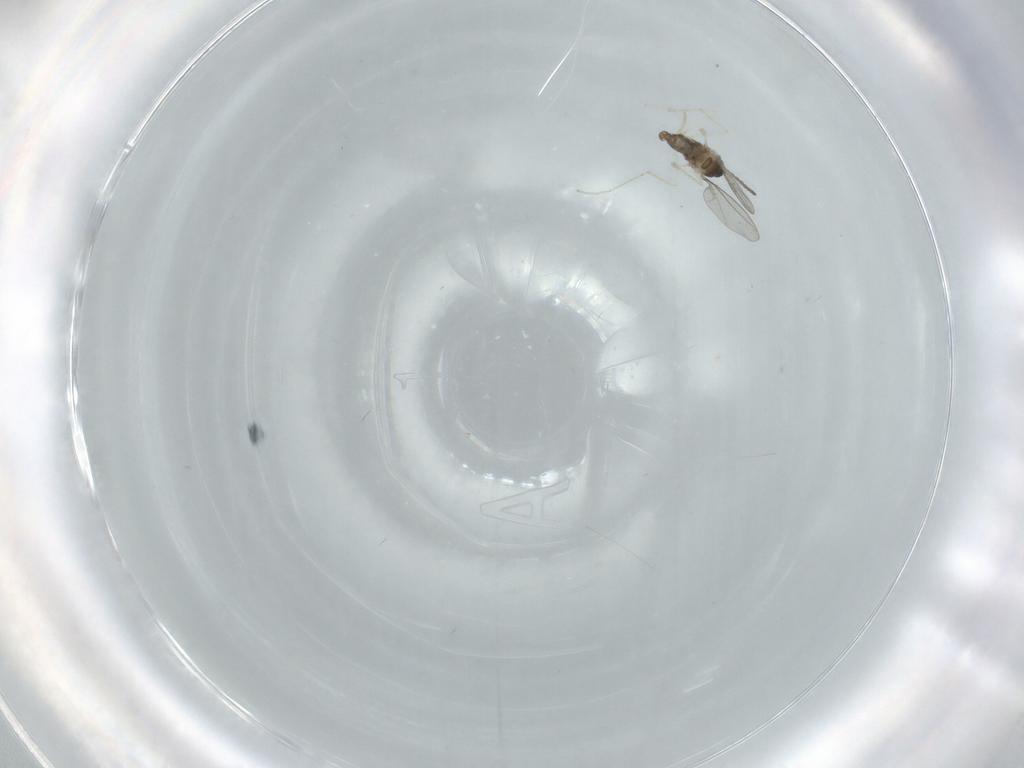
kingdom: Animalia
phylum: Arthropoda
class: Insecta
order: Diptera
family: Cecidomyiidae
